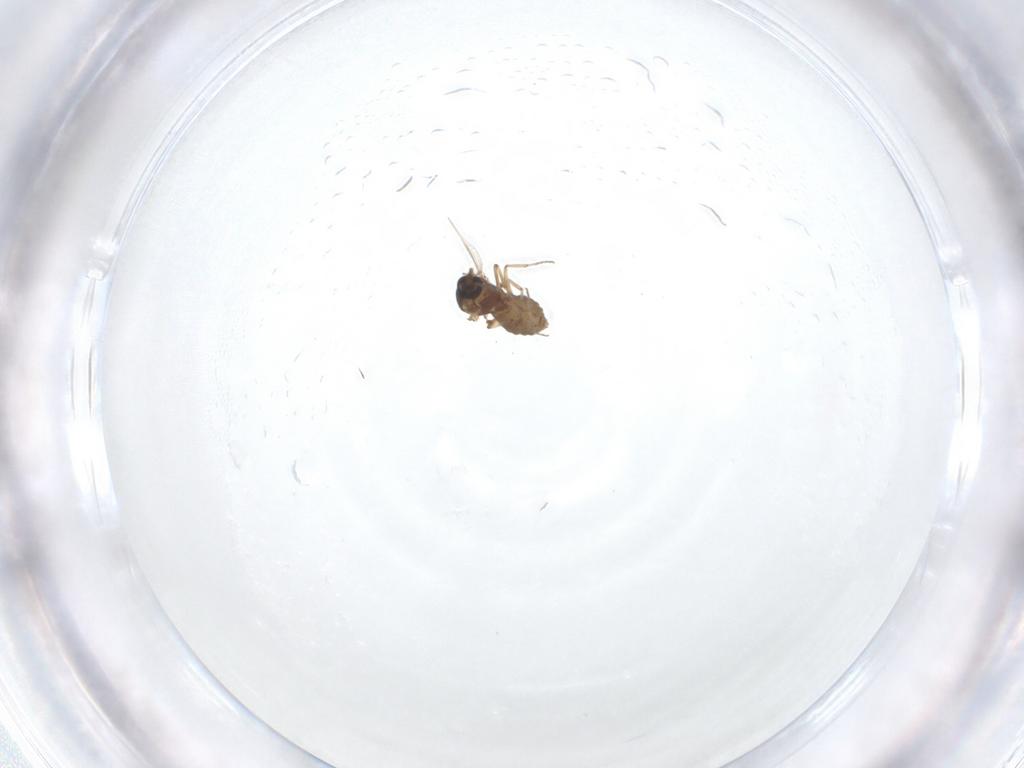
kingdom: Animalia
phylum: Arthropoda
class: Insecta
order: Diptera
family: Ceratopogonidae
